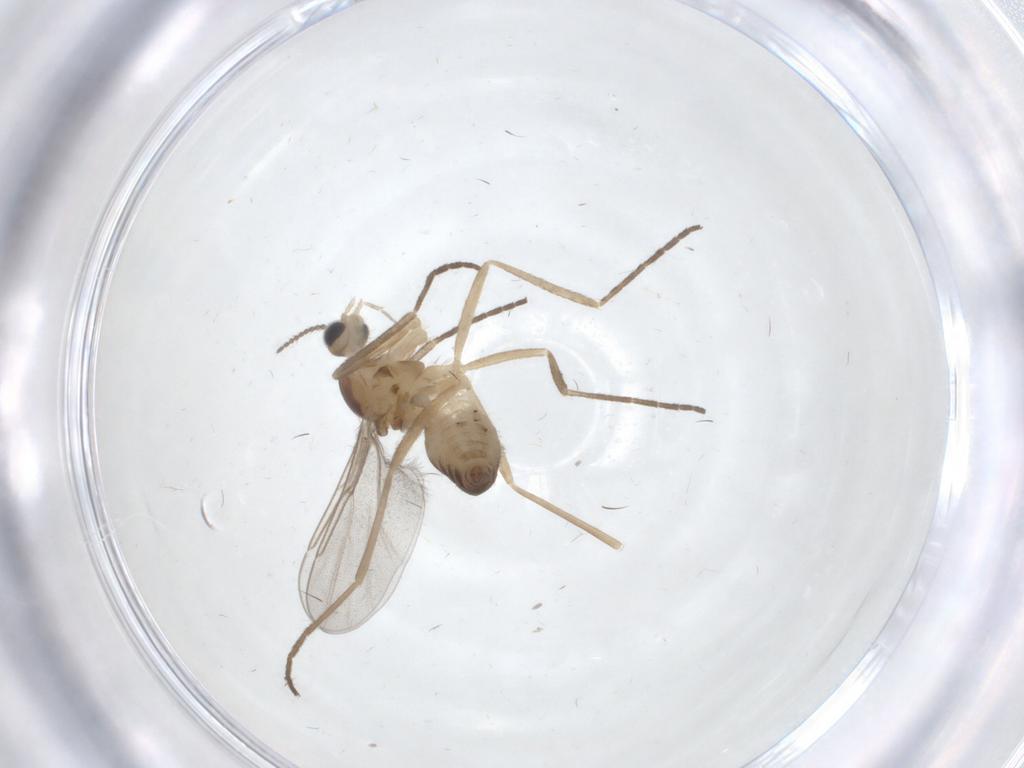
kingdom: Animalia
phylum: Arthropoda
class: Insecta
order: Diptera
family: Cecidomyiidae
